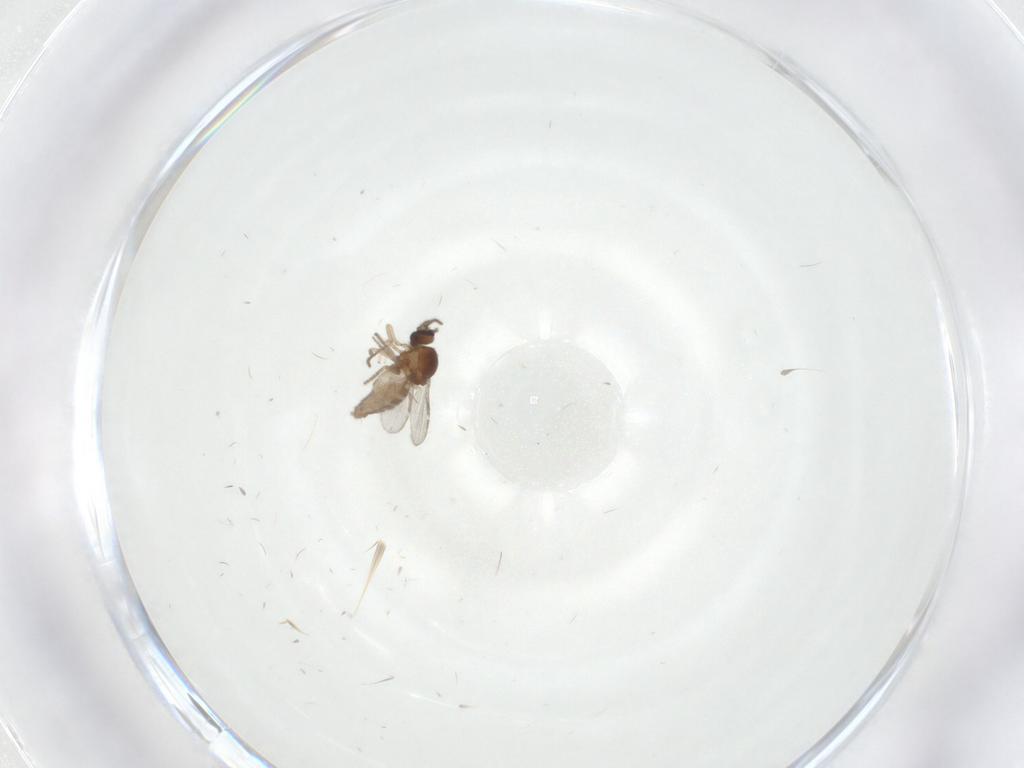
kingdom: Animalia
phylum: Arthropoda
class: Insecta
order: Diptera
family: Ceratopogonidae
